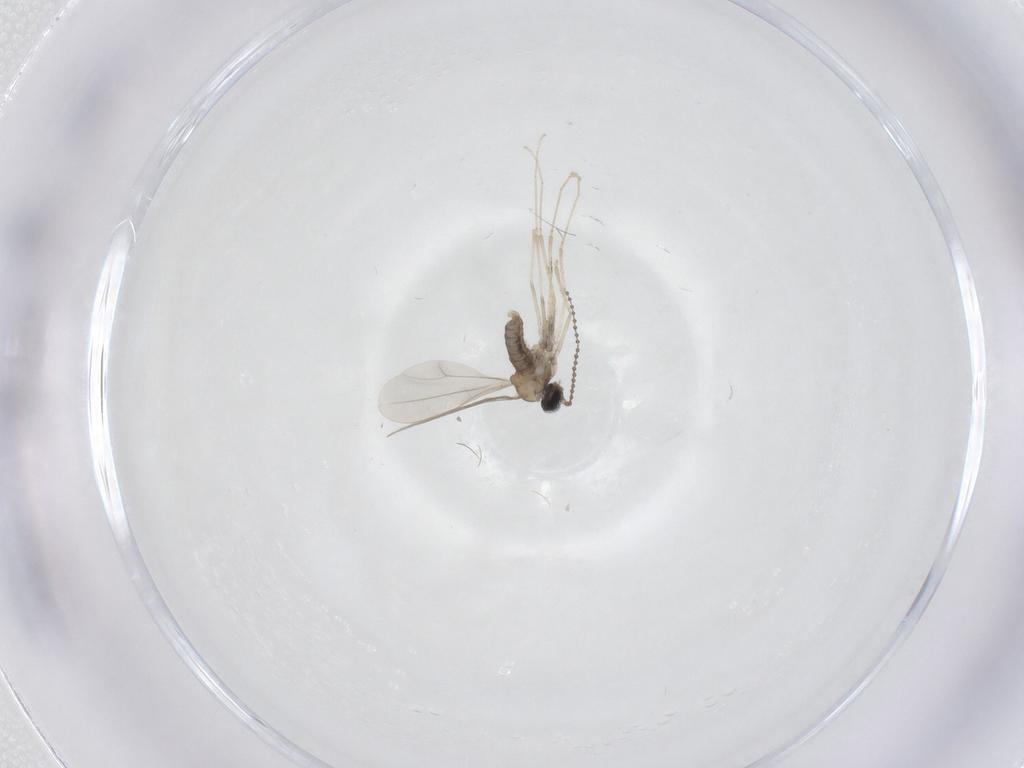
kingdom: Animalia
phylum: Arthropoda
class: Insecta
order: Diptera
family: Cecidomyiidae
